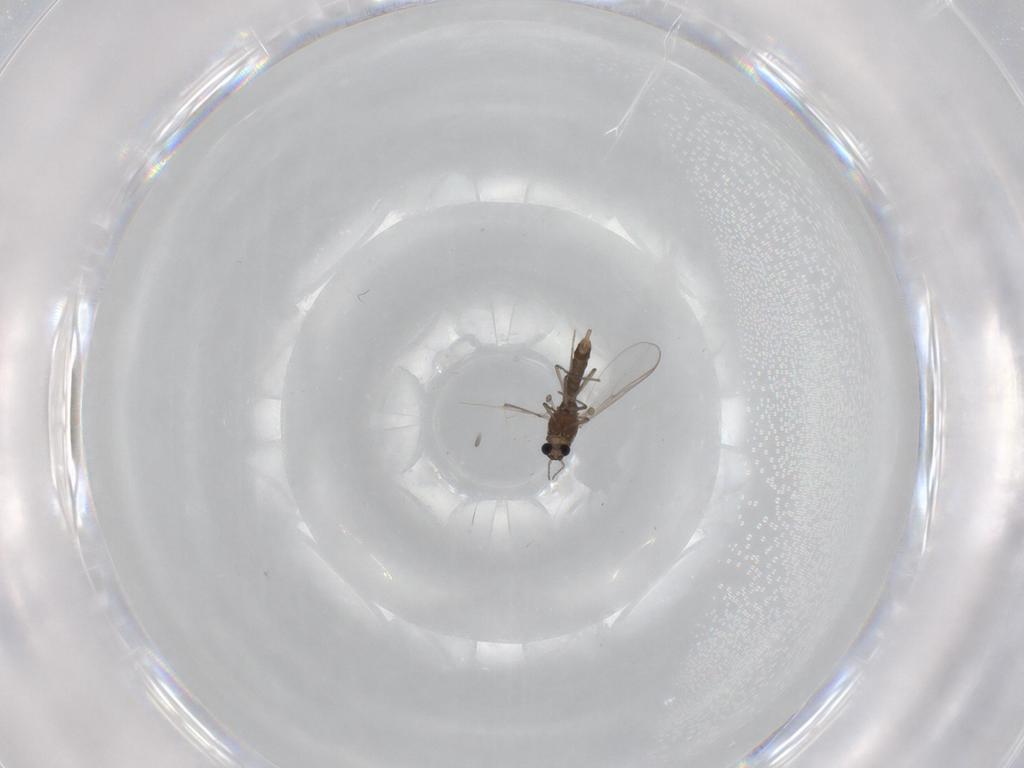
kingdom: Animalia
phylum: Arthropoda
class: Insecta
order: Diptera
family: Chironomidae
